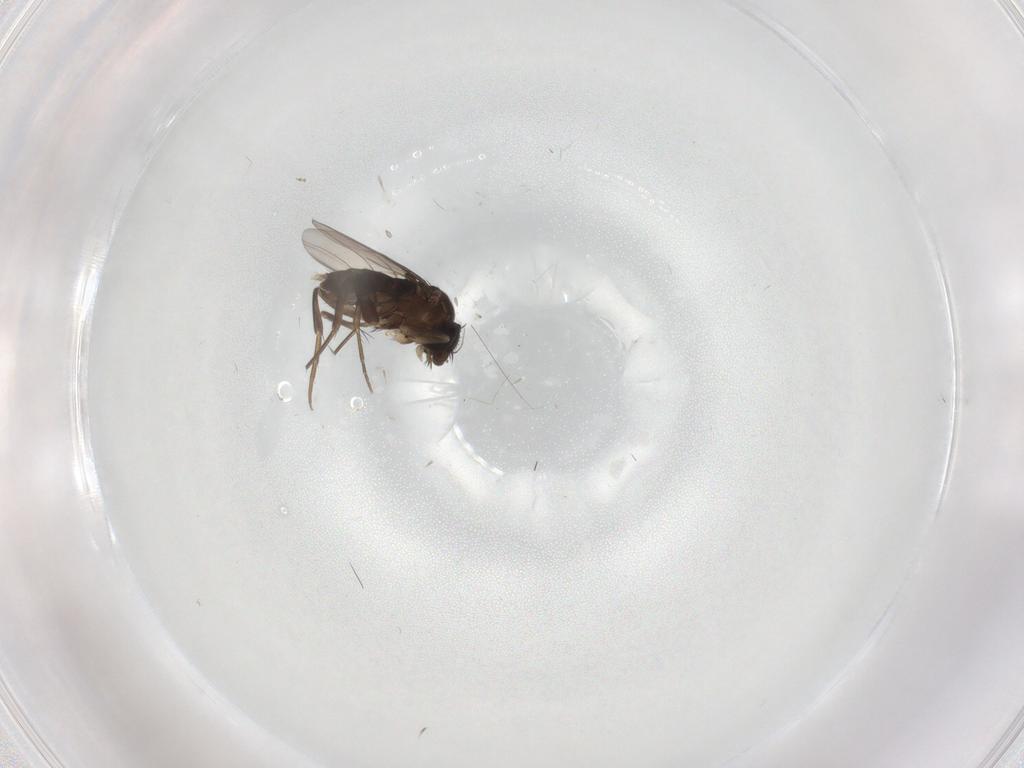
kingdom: Animalia
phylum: Arthropoda
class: Insecta
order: Diptera
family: Phoridae
